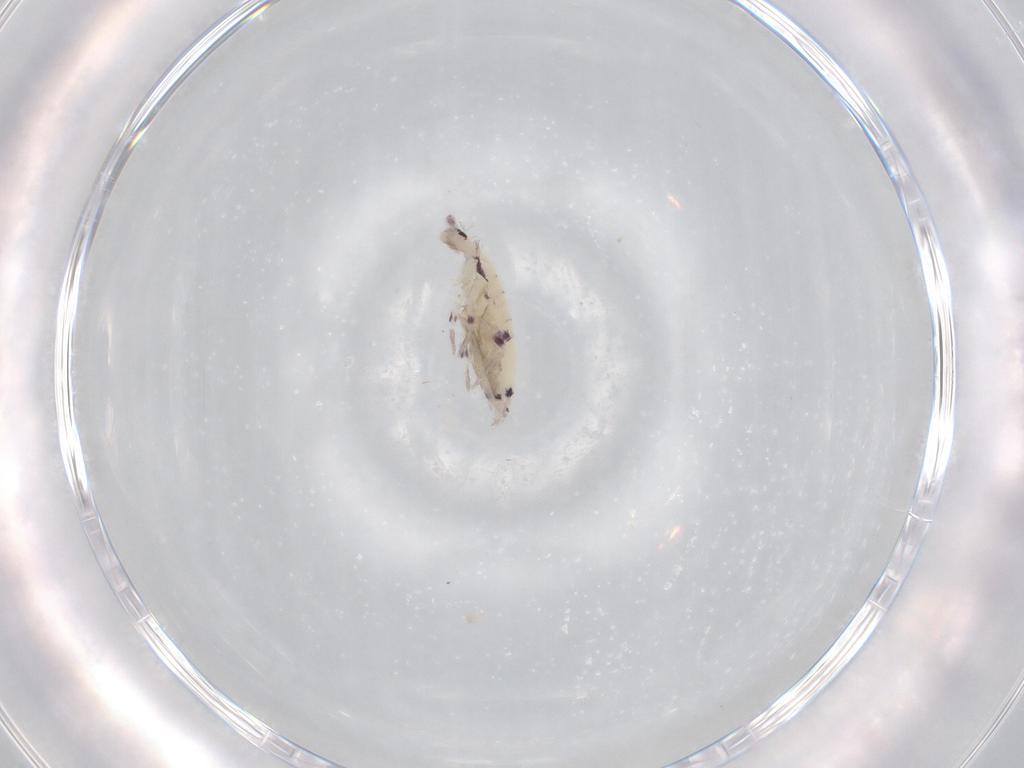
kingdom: Animalia
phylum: Arthropoda
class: Collembola
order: Poduromorpha
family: Hypogastruridae
